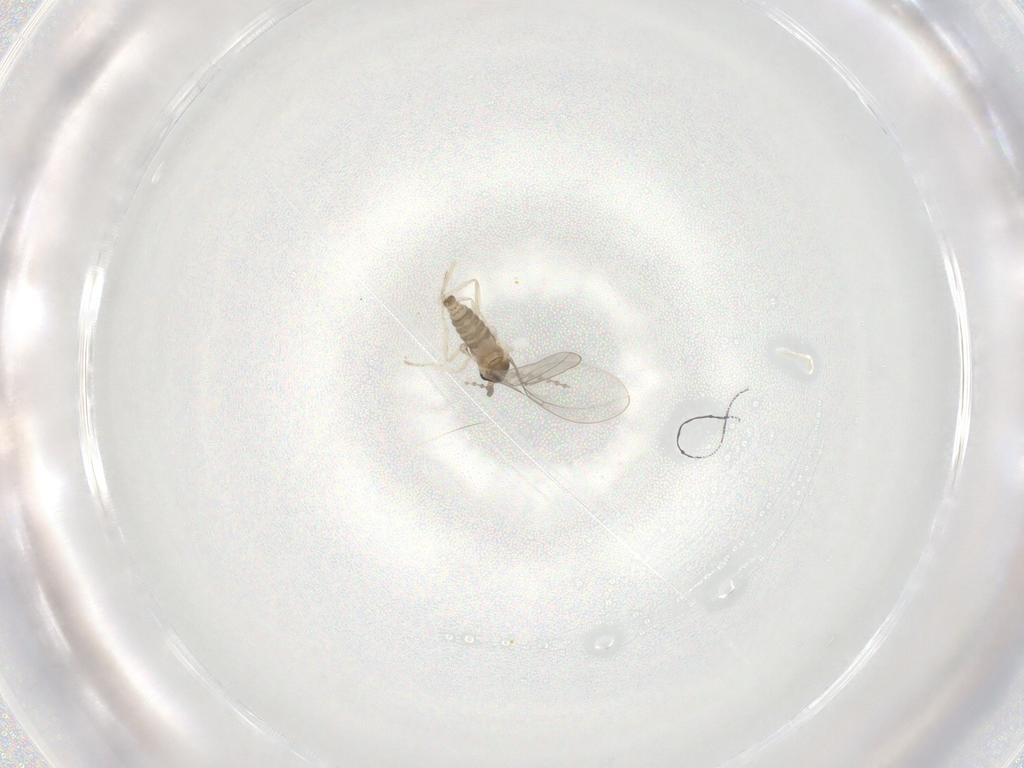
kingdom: Animalia
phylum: Arthropoda
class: Insecta
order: Diptera
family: Cecidomyiidae
